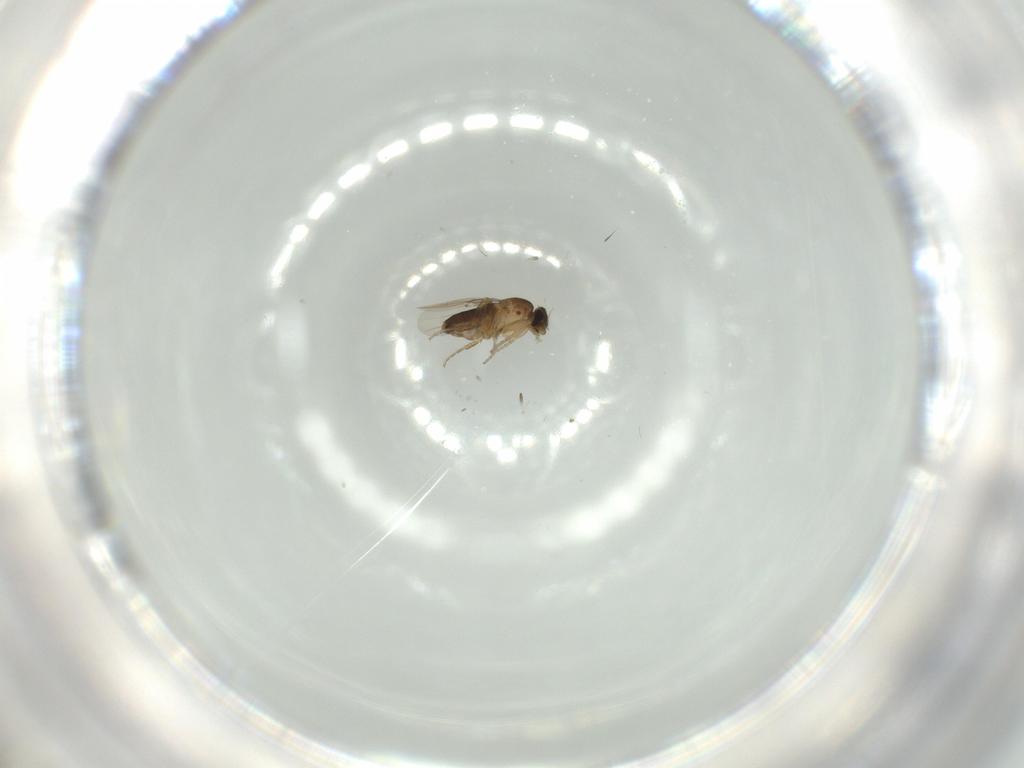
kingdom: Animalia
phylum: Arthropoda
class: Insecta
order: Diptera
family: Phoridae
